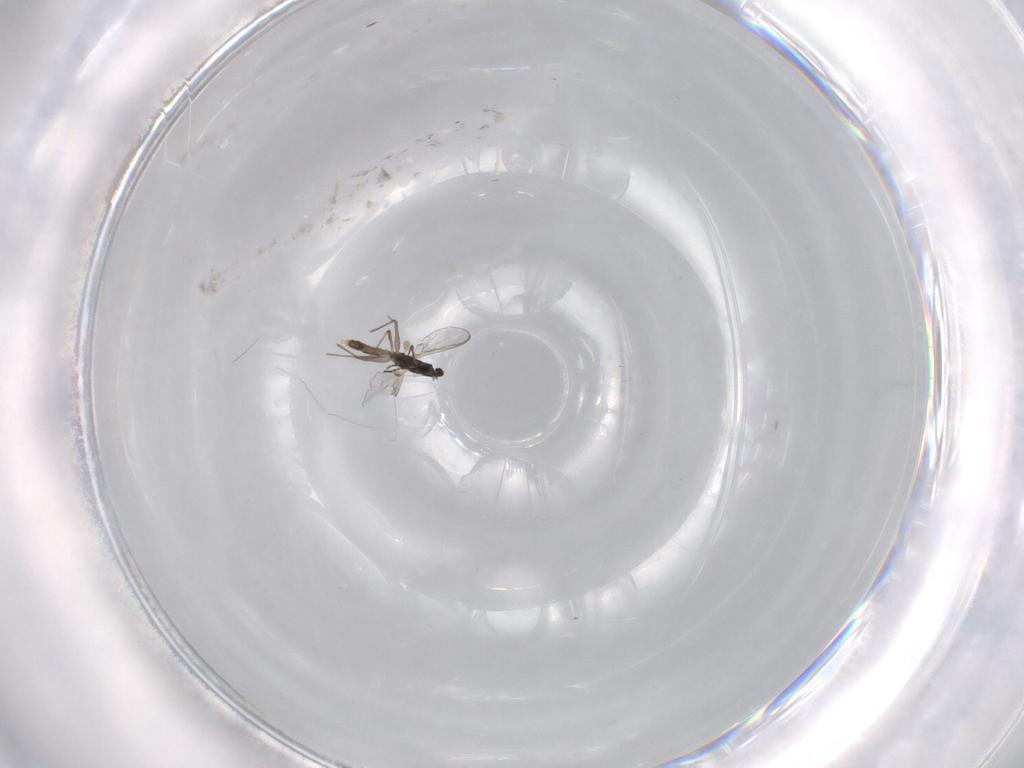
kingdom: Animalia
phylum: Arthropoda
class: Insecta
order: Diptera
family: Chironomidae
